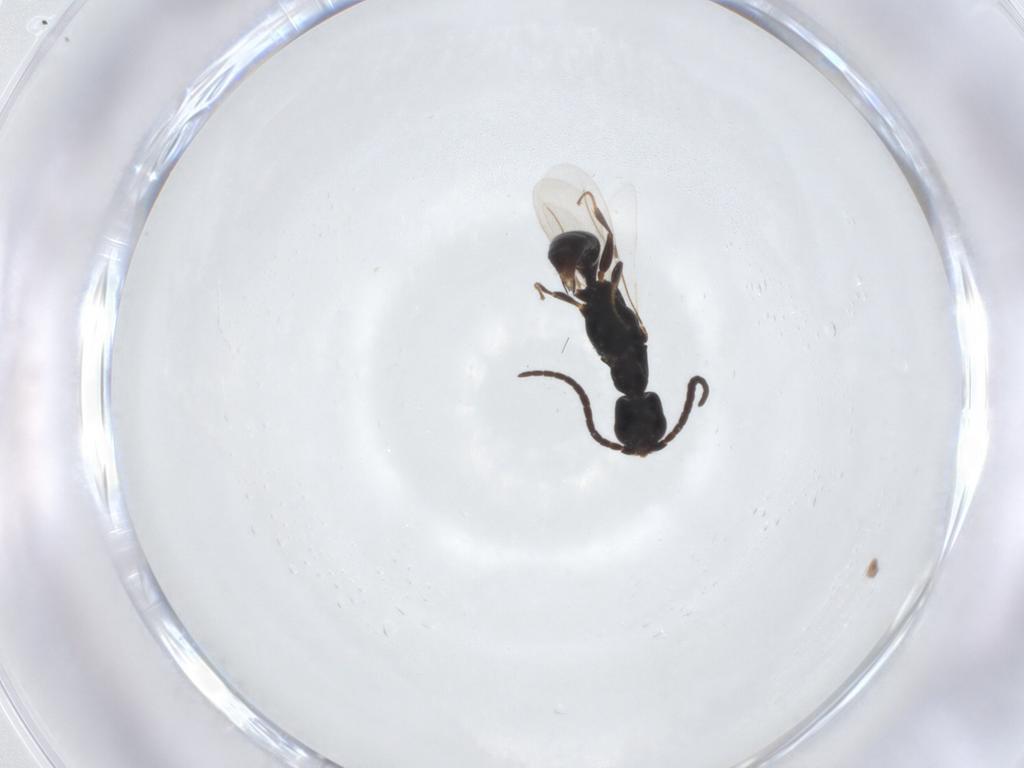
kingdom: Animalia
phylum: Arthropoda
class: Insecta
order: Hymenoptera
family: Bethylidae
